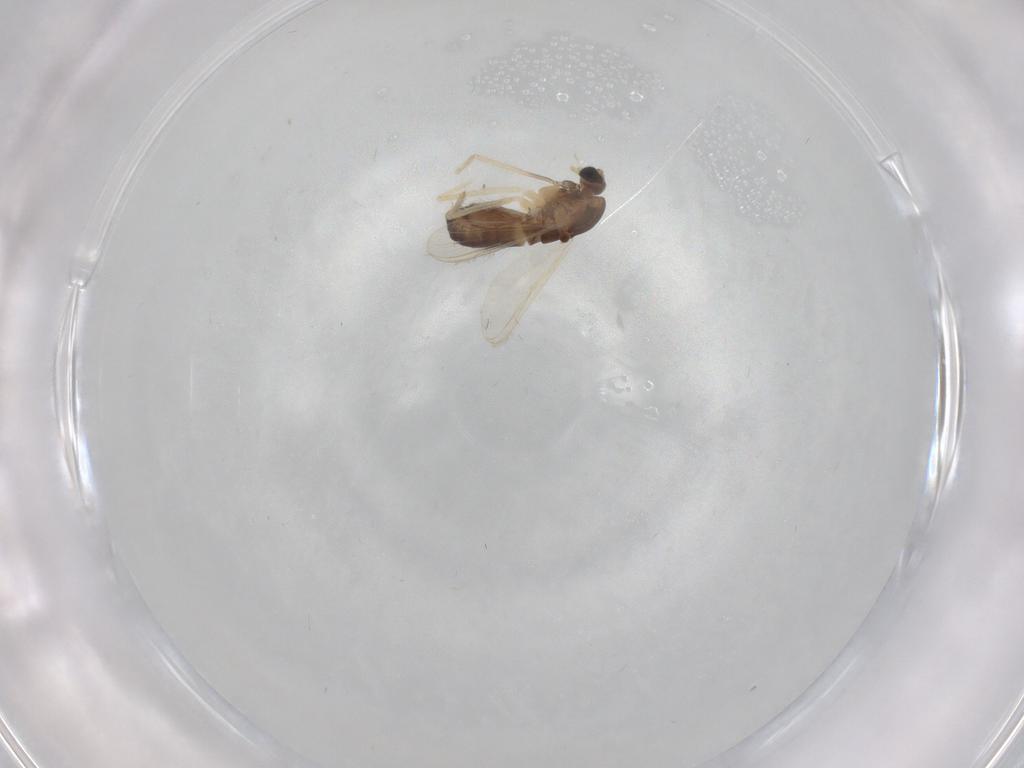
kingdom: Animalia
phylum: Arthropoda
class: Insecta
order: Diptera
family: Chironomidae
